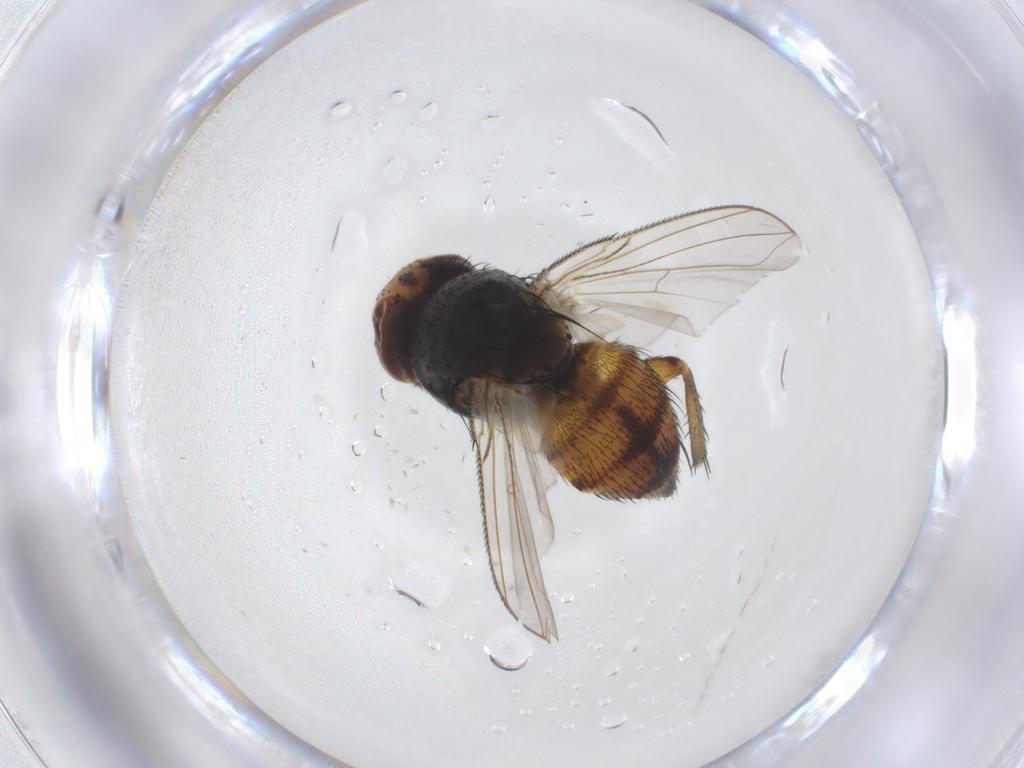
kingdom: Animalia
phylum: Arthropoda
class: Insecta
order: Diptera
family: Tachinidae
